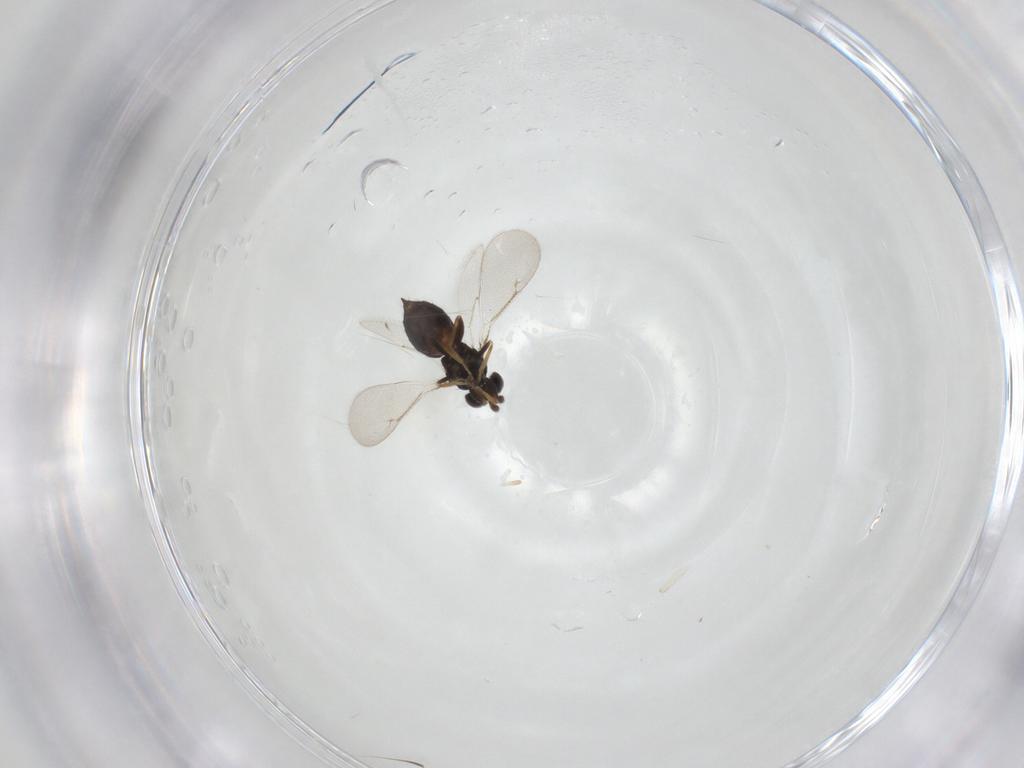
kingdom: Animalia
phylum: Arthropoda
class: Insecta
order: Hymenoptera
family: Eulophidae
